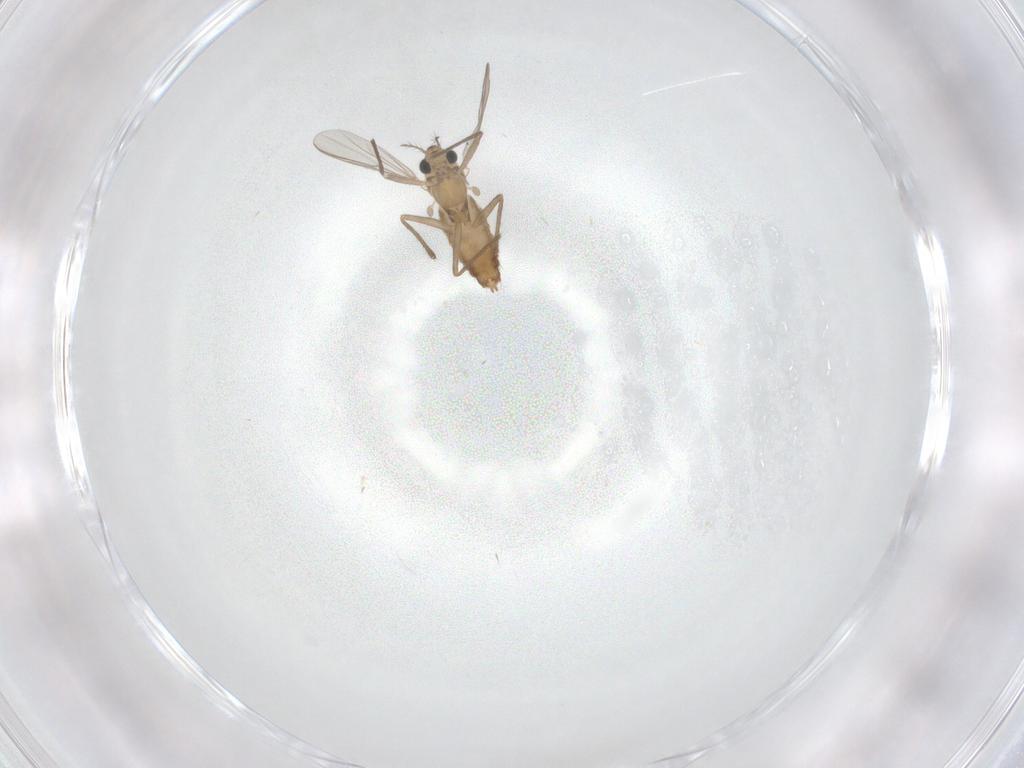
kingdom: Animalia
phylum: Arthropoda
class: Insecta
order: Diptera
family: Chironomidae
